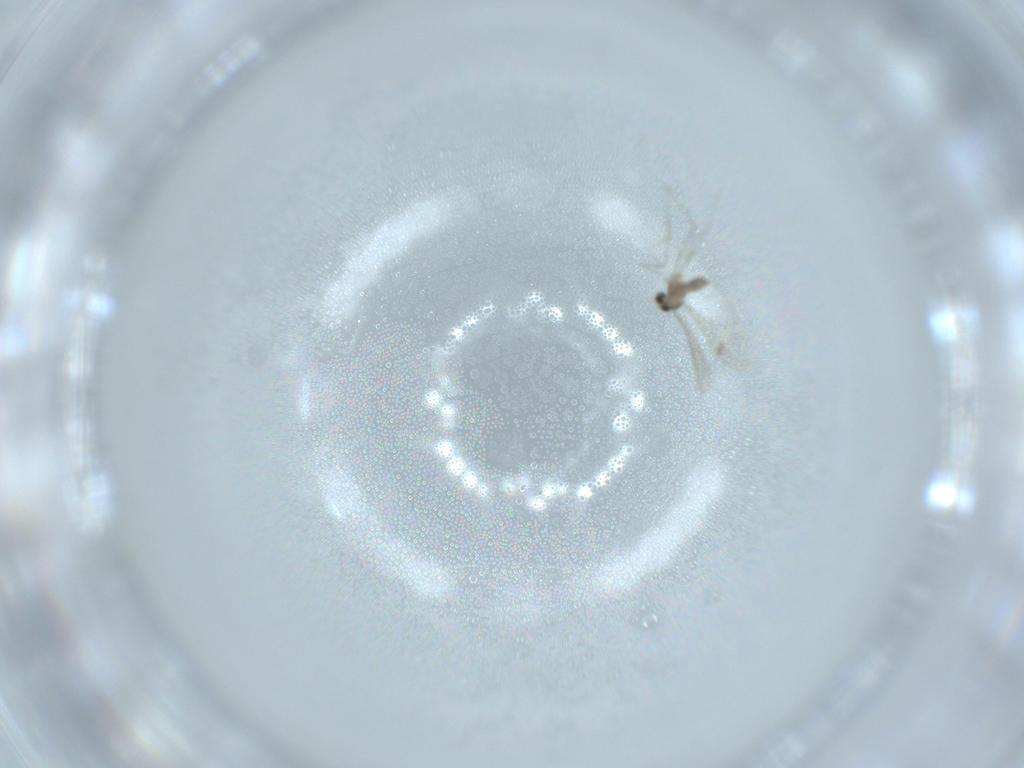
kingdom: Animalia
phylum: Arthropoda
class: Insecta
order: Diptera
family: Cecidomyiidae
